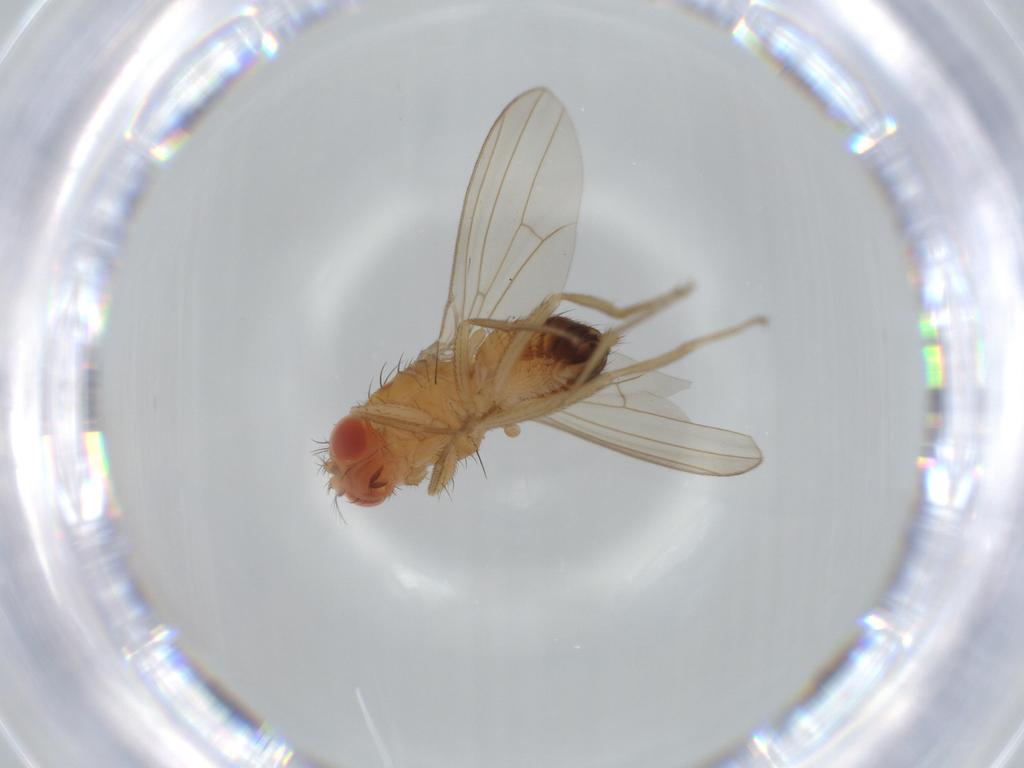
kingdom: Animalia
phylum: Arthropoda
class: Insecta
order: Diptera
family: Drosophilidae
